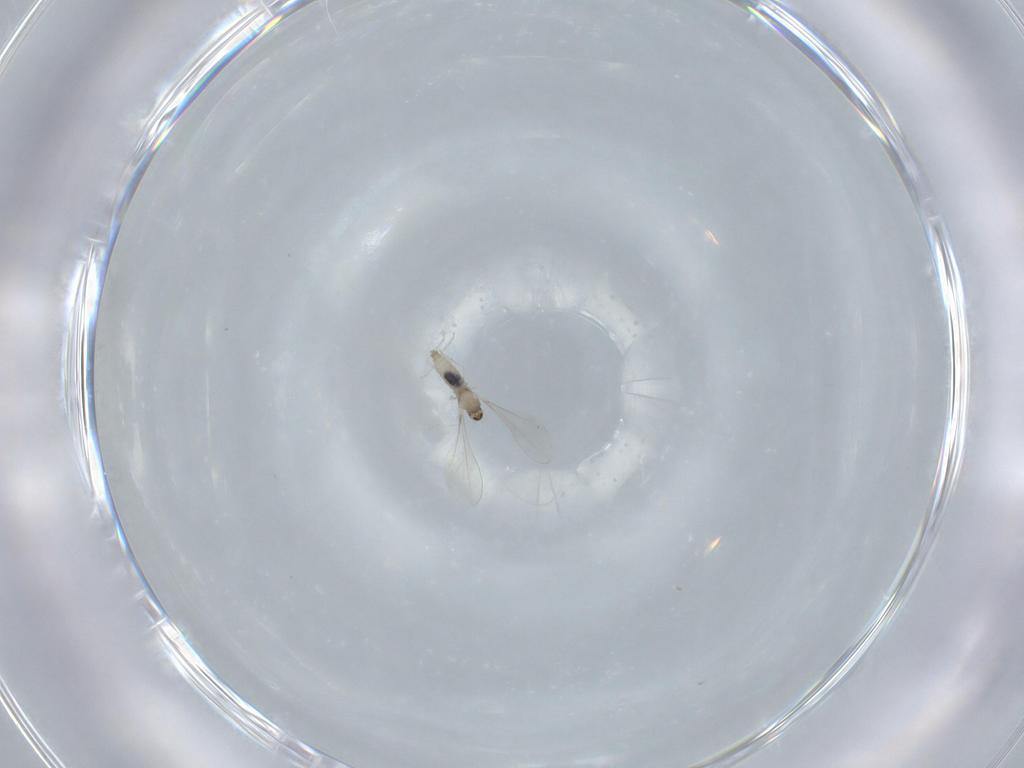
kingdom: Animalia
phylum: Arthropoda
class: Insecta
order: Diptera
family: Cecidomyiidae
